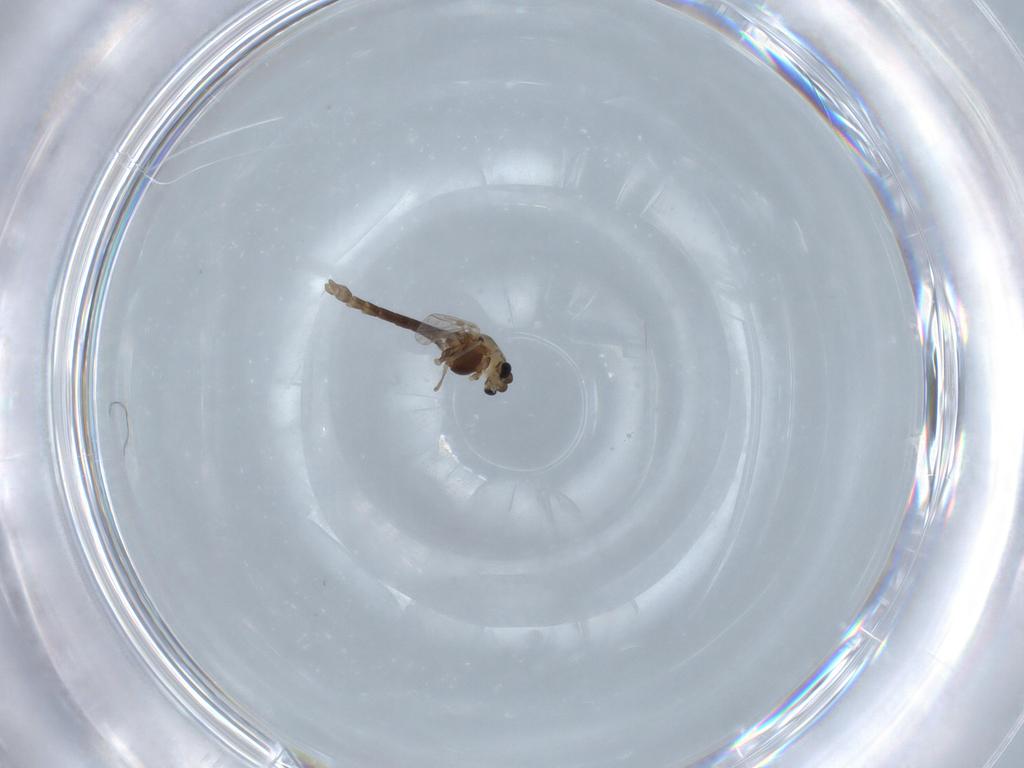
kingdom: Animalia
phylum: Arthropoda
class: Insecta
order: Diptera
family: Chironomidae
